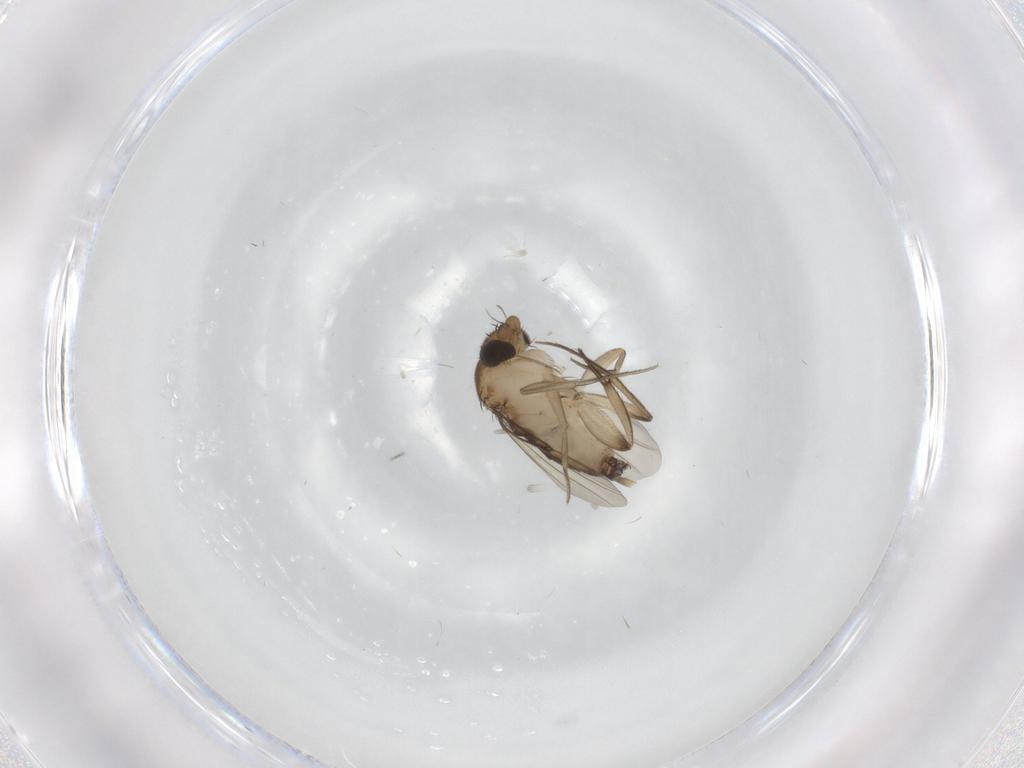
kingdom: Animalia
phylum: Arthropoda
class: Insecta
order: Diptera
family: Phoridae
